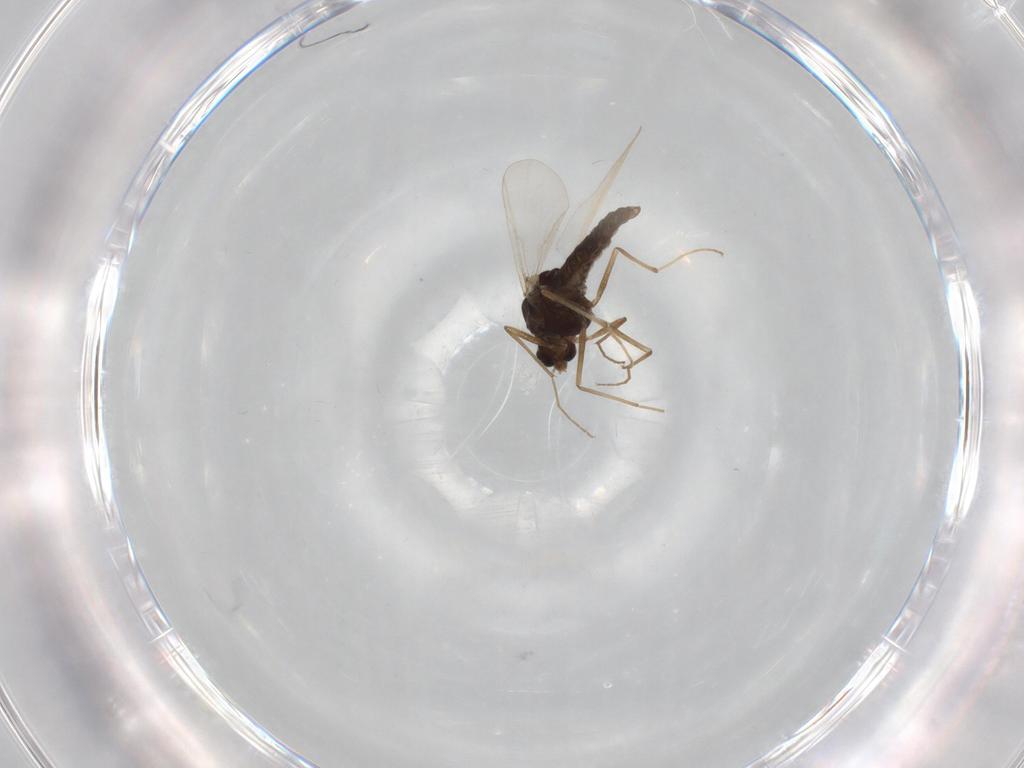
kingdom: Animalia
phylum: Arthropoda
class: Insecta
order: Diptera
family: Chironomidae
